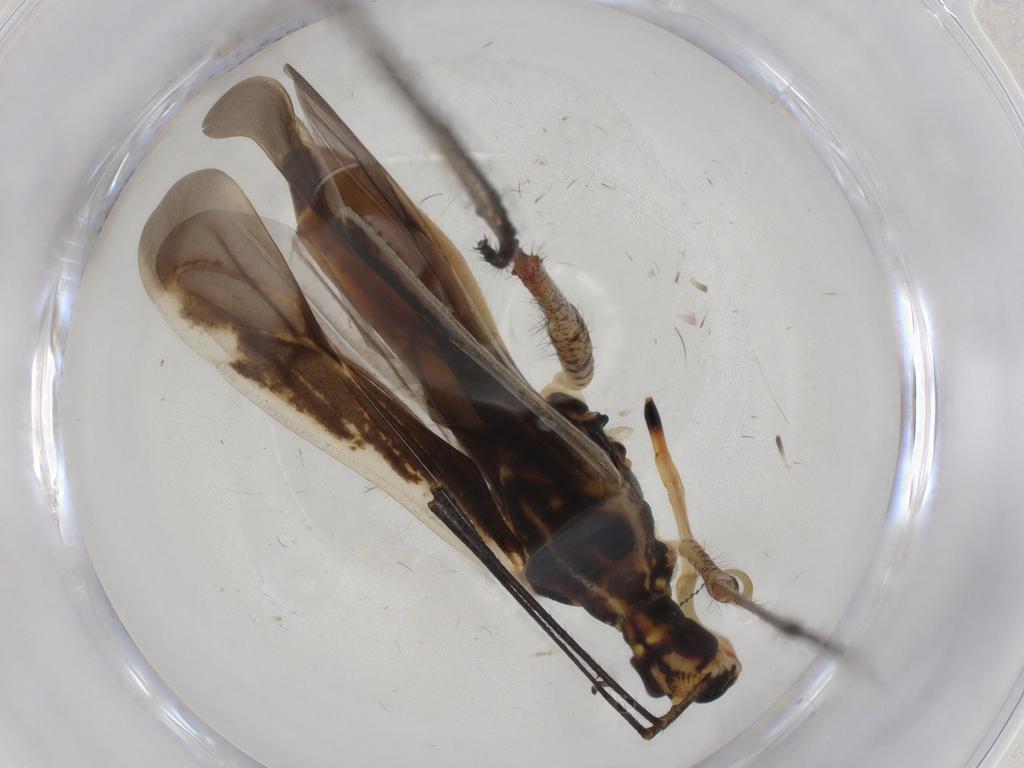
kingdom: Animalia
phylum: Arthropoda
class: Insecta
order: Hemiptera
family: Miridae
